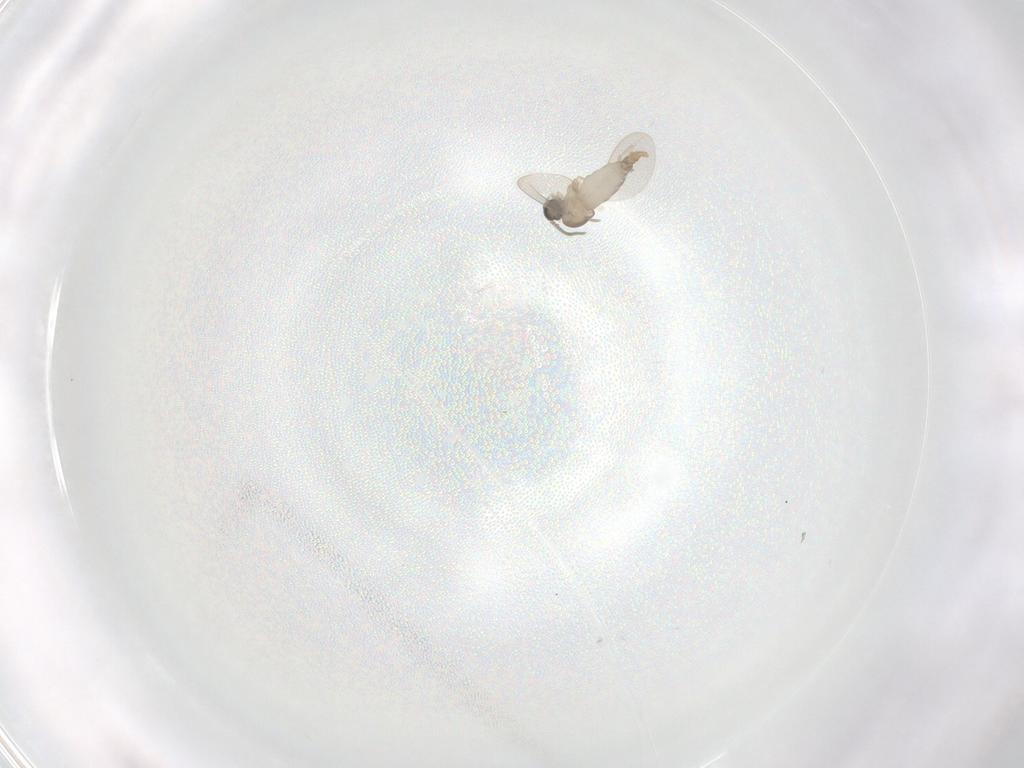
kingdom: Animalia
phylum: Arthropoda
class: Insecta
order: Diptera
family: Cecidomyiidae
